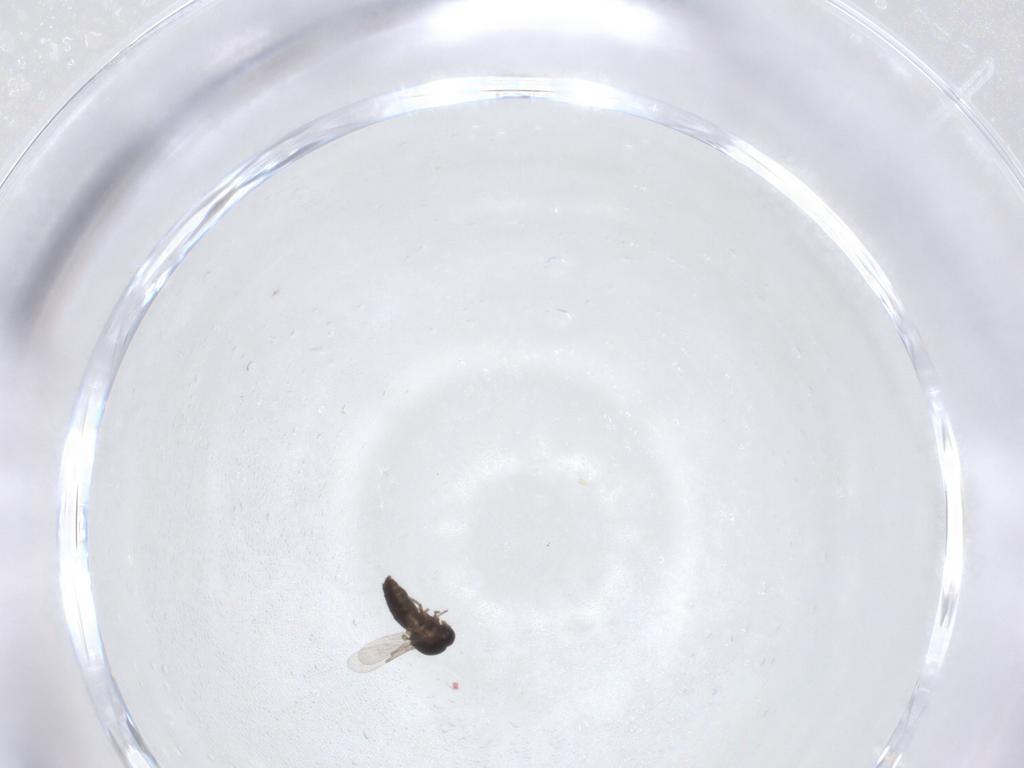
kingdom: Animalia
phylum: Arthropoda
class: Insecta
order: Diptera
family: Ceratopogonidae
